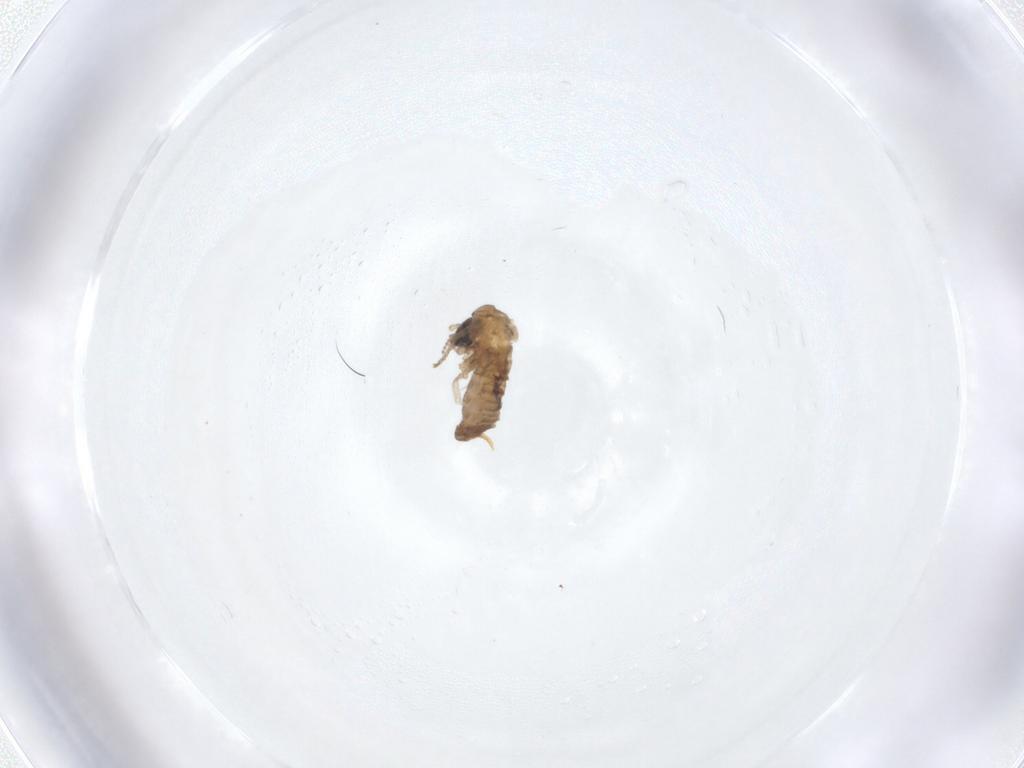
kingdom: Animalia
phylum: Arthropoda
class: Insecta
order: Diptera
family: Psychodidae
